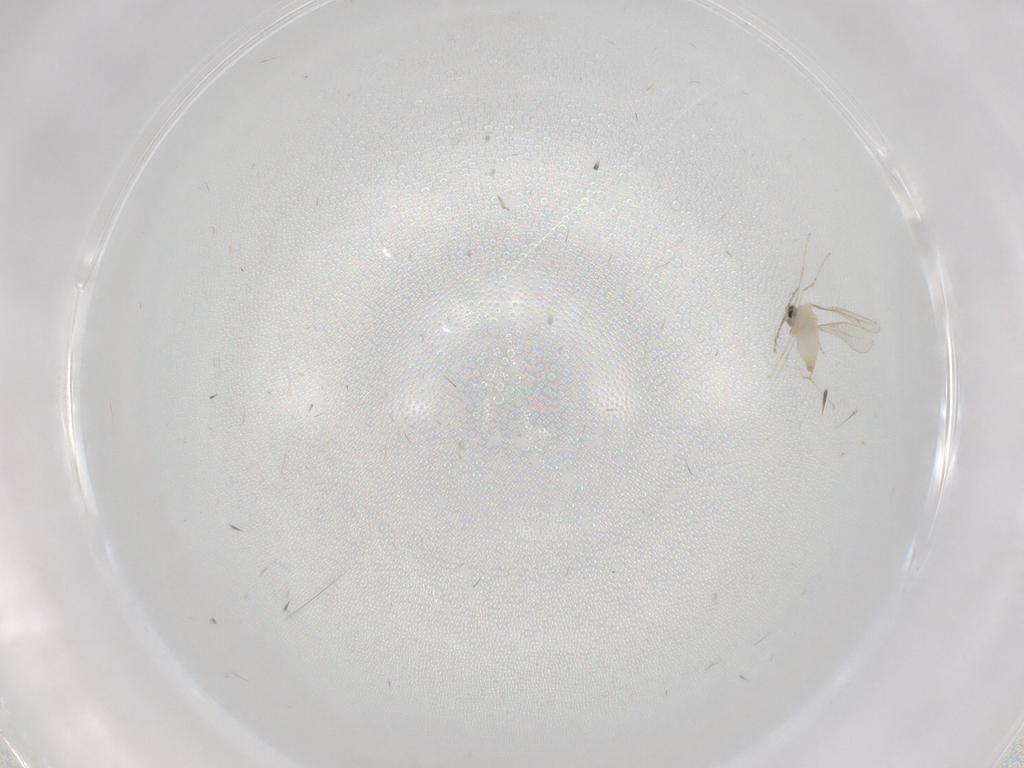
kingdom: Animalia
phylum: Arthropoda
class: Insecta
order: Diptera
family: Cecidomyiidae
